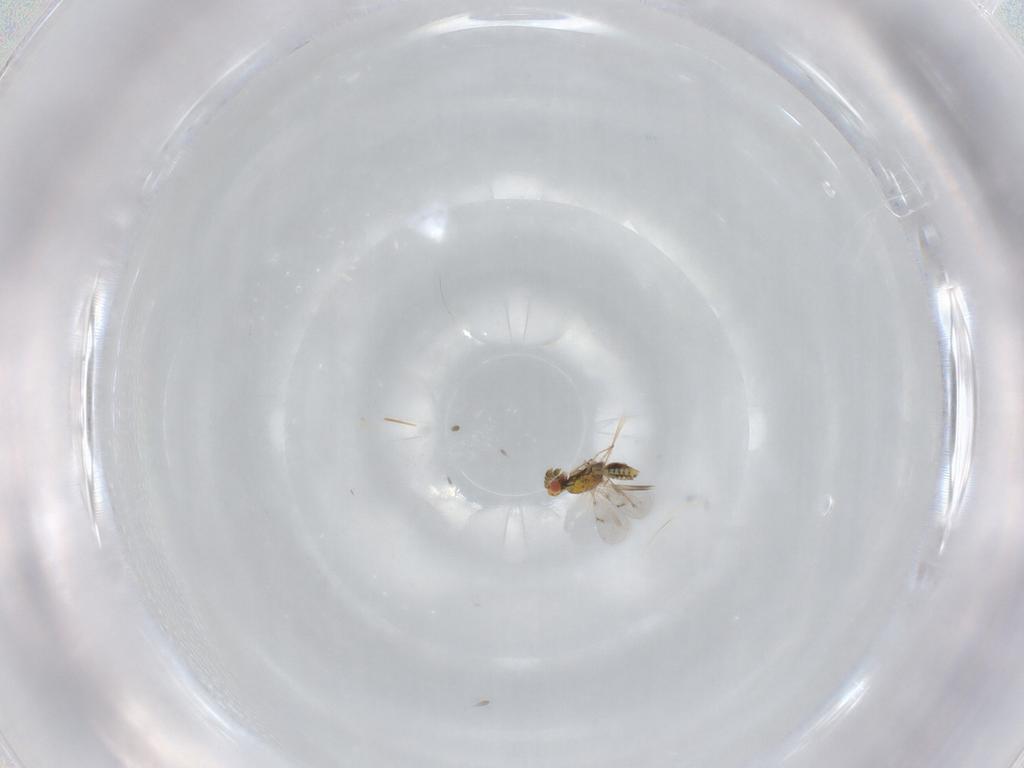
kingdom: Animalia
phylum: Arthropoda
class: Insecta
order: Hymenoptera
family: Eulophidae
